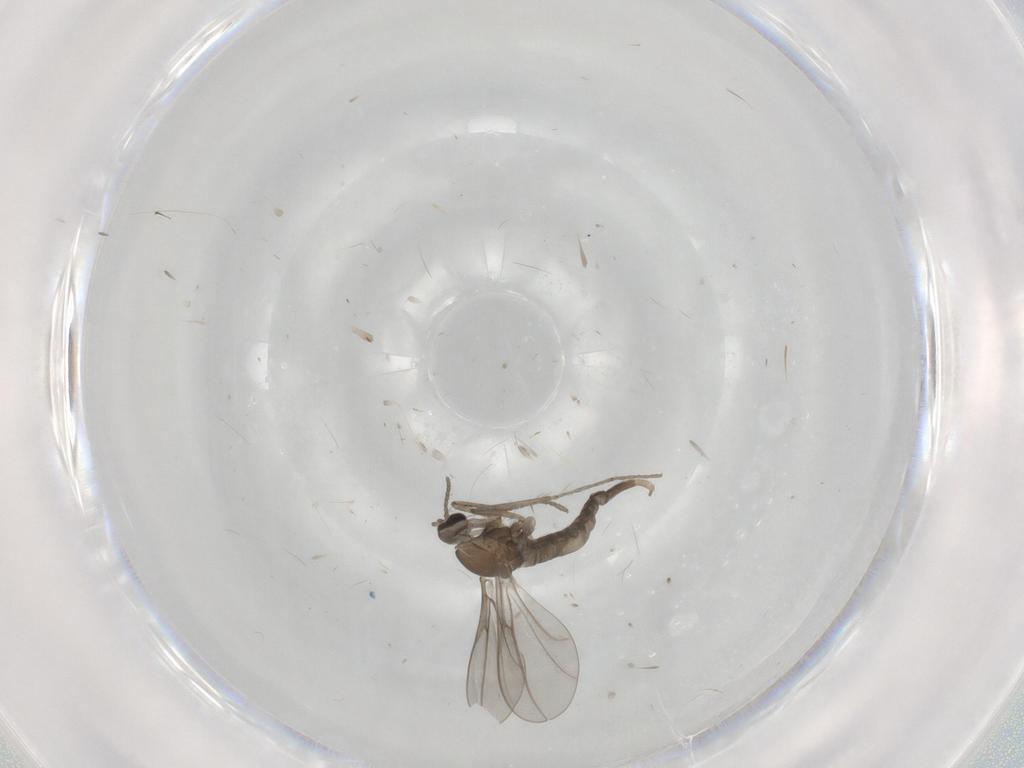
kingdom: Animalia
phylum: Arthropoda
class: Insecta
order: Diptera
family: Cecidomyiidae
